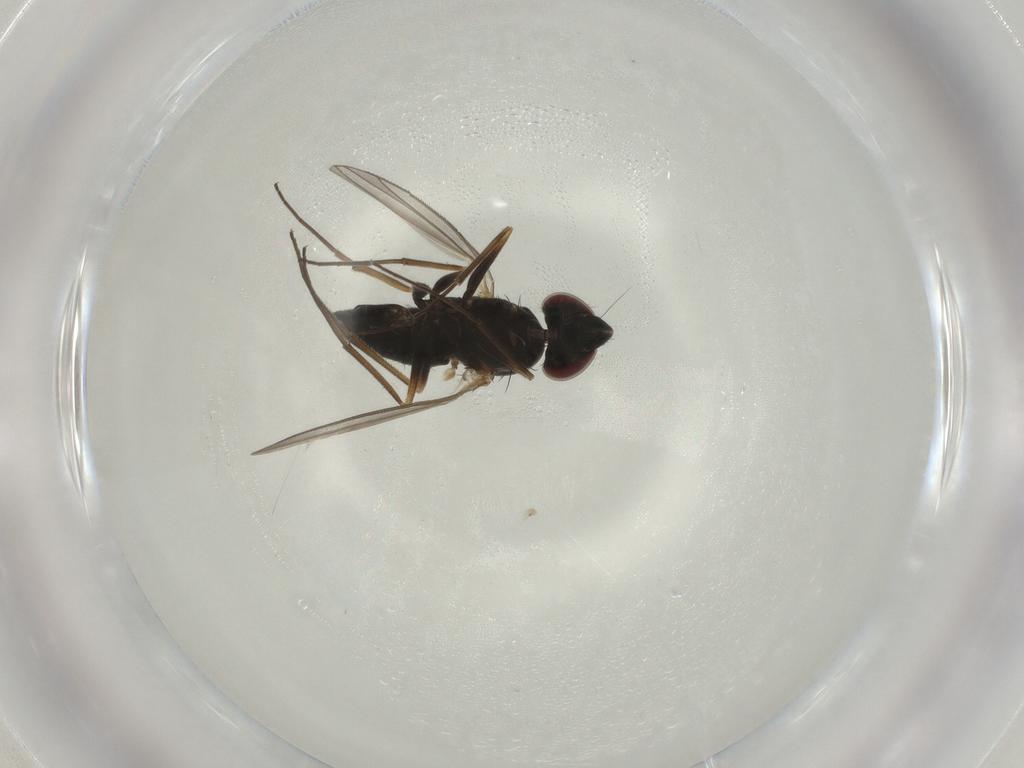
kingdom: Animalia
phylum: Arthropoda
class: Insecta
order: Diptera
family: Dolichopodidae
